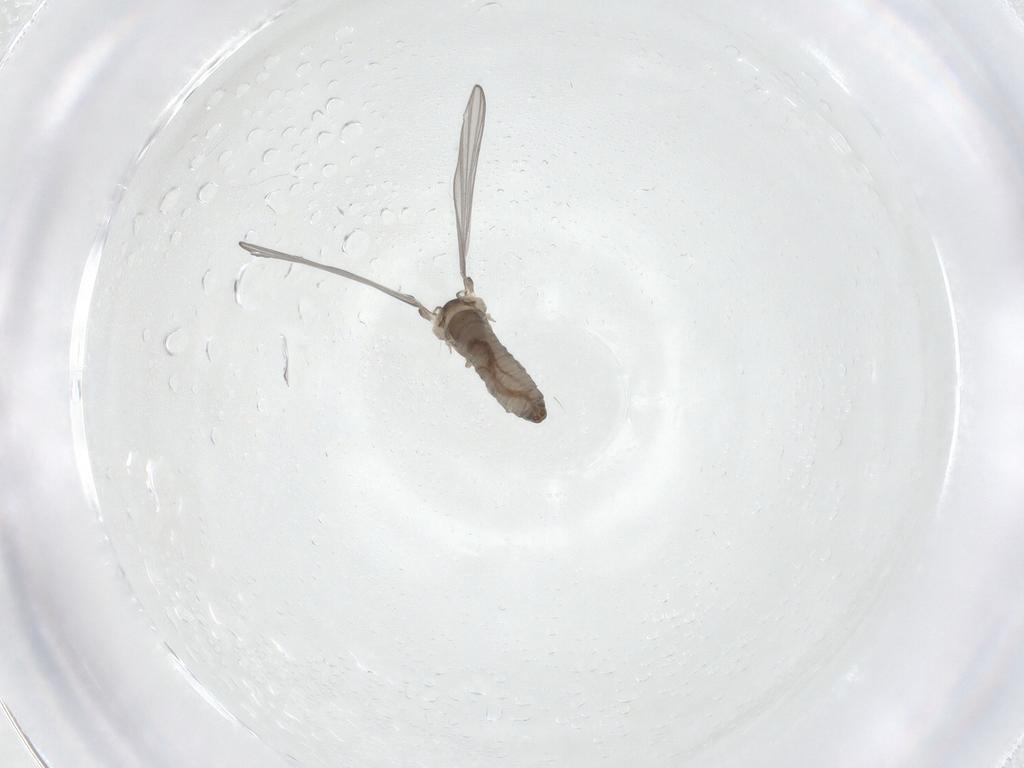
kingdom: Animalia
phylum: Arthropoda
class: Insecta
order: Diptera
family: Psychodidae
